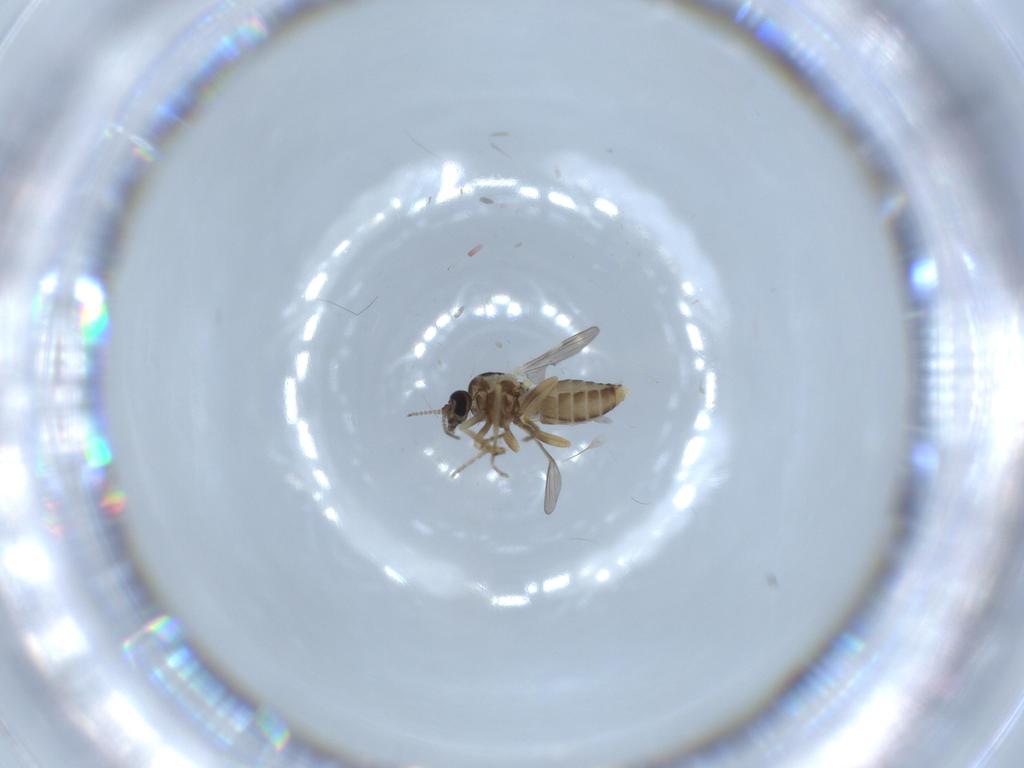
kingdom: Animalia
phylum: Arthropoda
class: Insecta
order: Diptera
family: Ceratopogonidae
